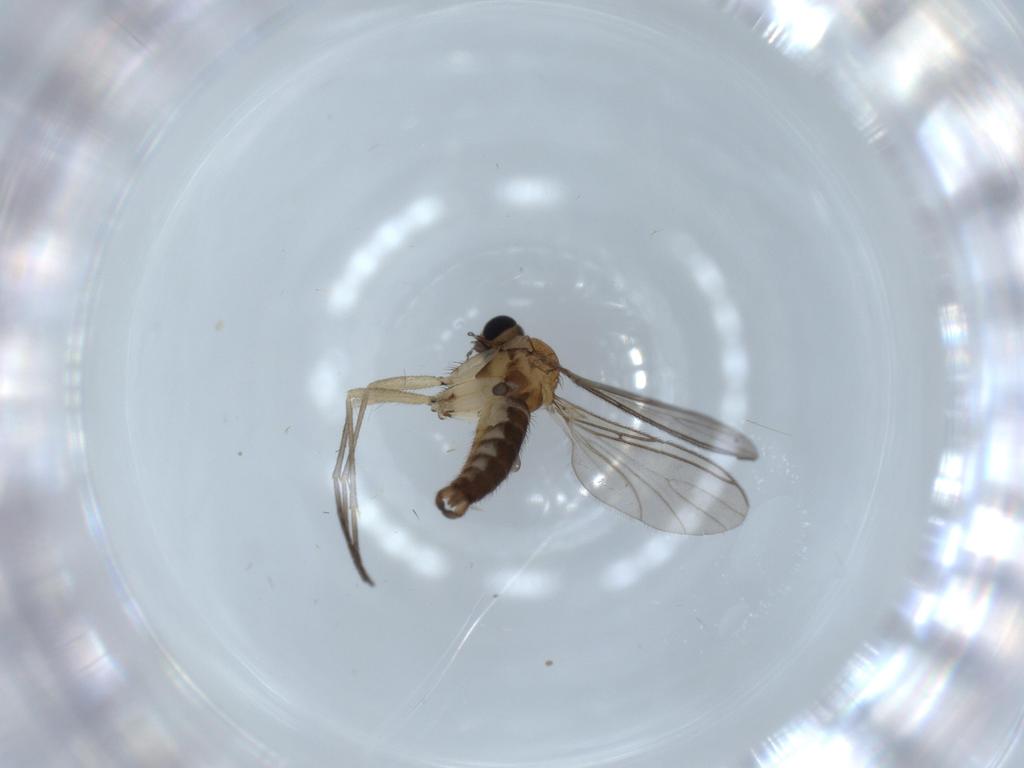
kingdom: Animalia
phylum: Arthropoda
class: Insecta
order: Diptera
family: Sciaridae
